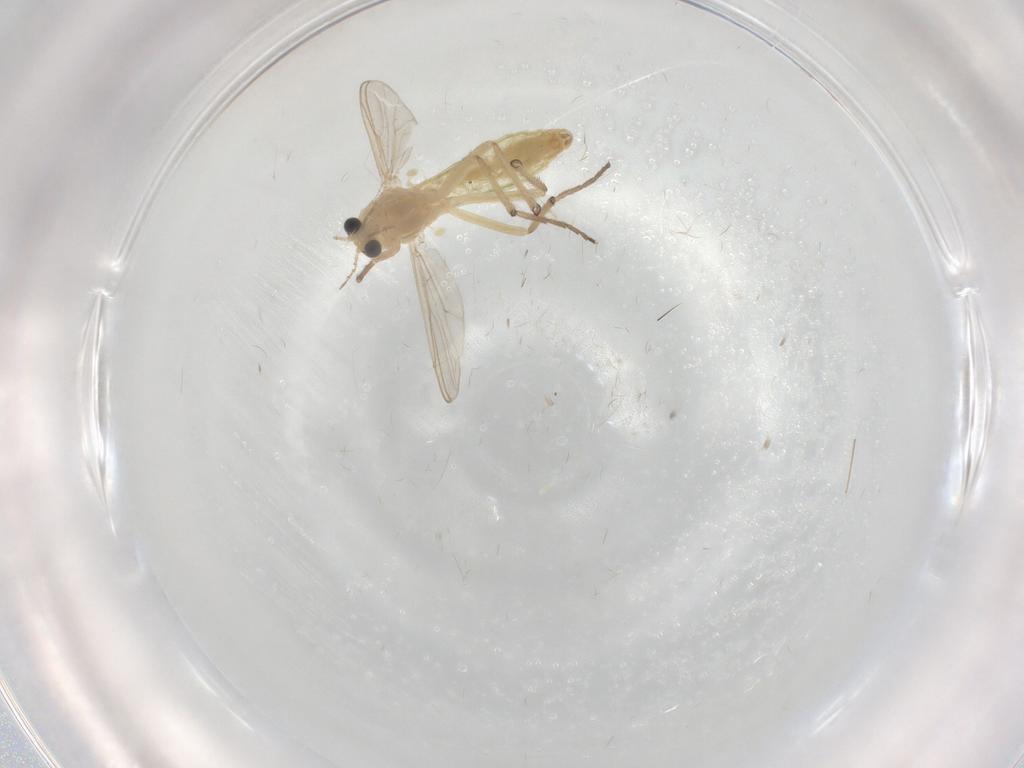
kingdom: Animalia
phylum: Arthropoda
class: Insecta
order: Diptera
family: Chironomidae
